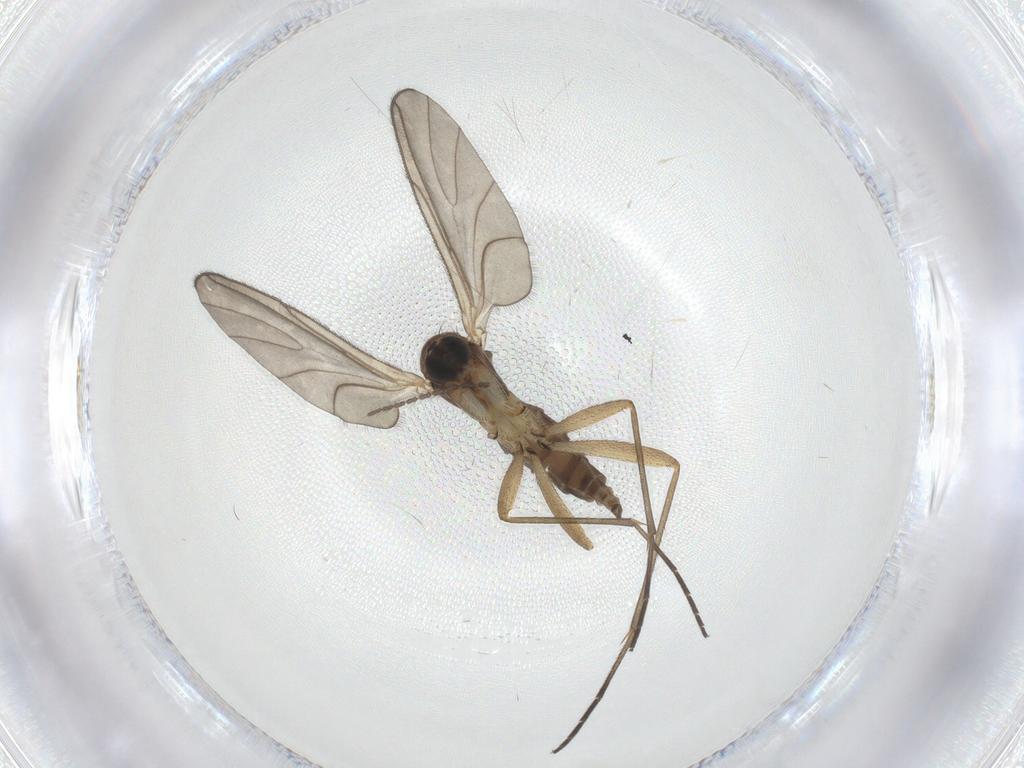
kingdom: Animalia
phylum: Arthropoda
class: Insecta
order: Diptera
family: Sciaridae
